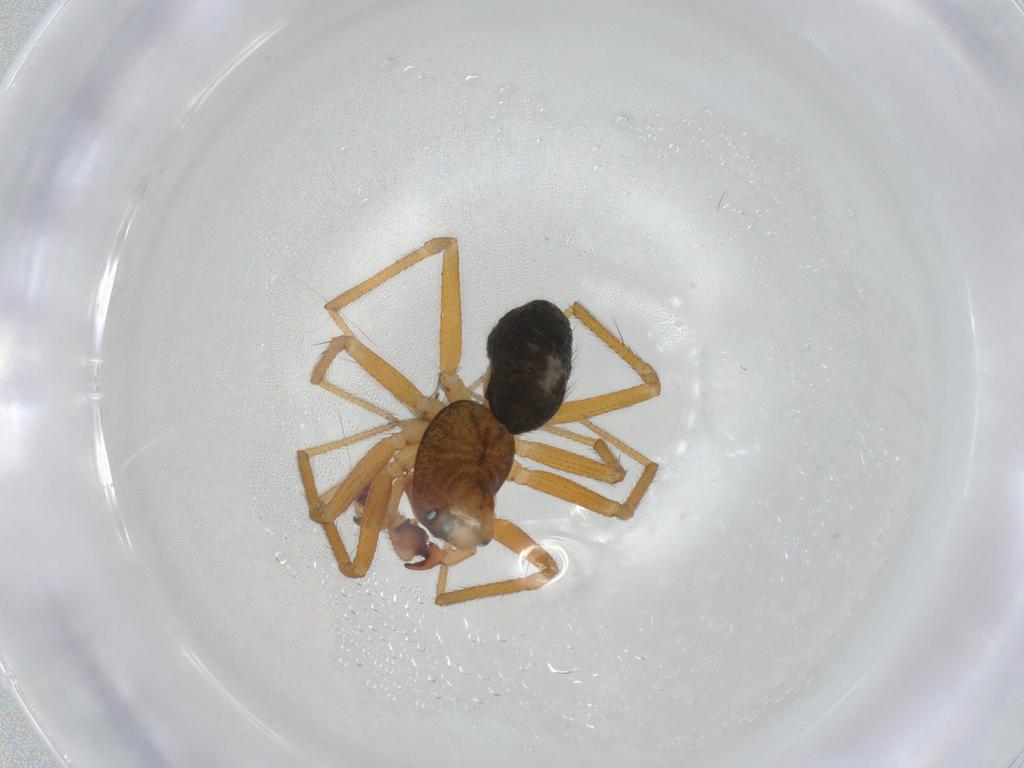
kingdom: Animalia
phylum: Arthropoda
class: Arachnida
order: Araneae
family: Linyphiidae
